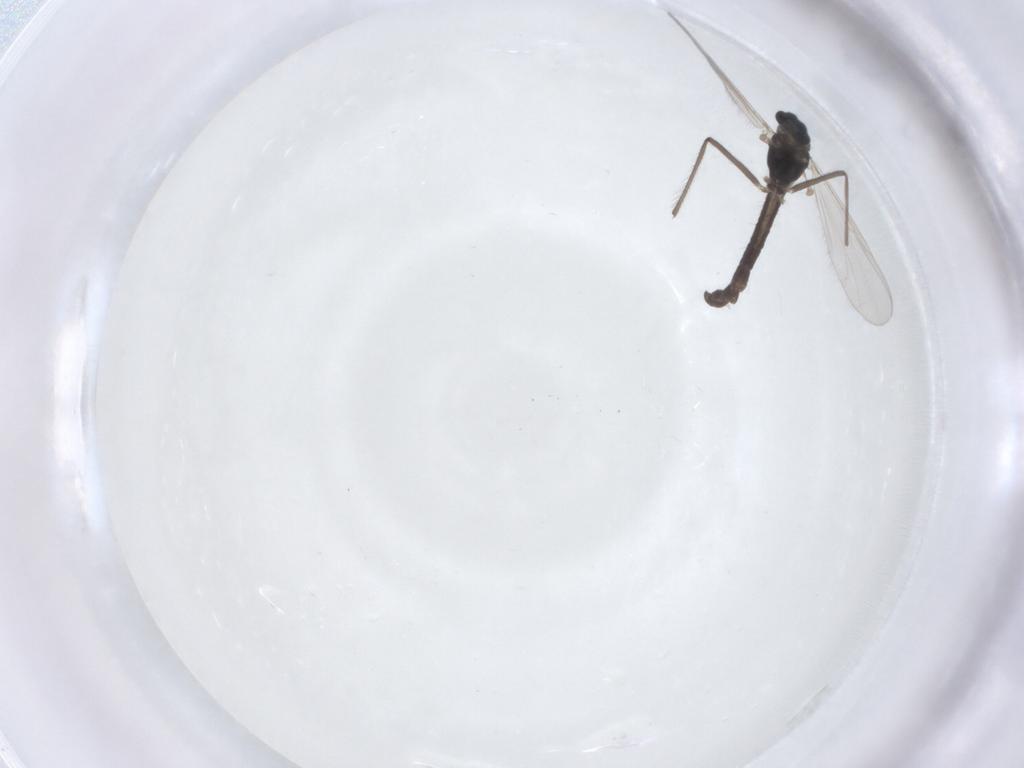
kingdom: Animalia
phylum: Arthropoda
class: Insecta
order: Diptera
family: Chironomidae
